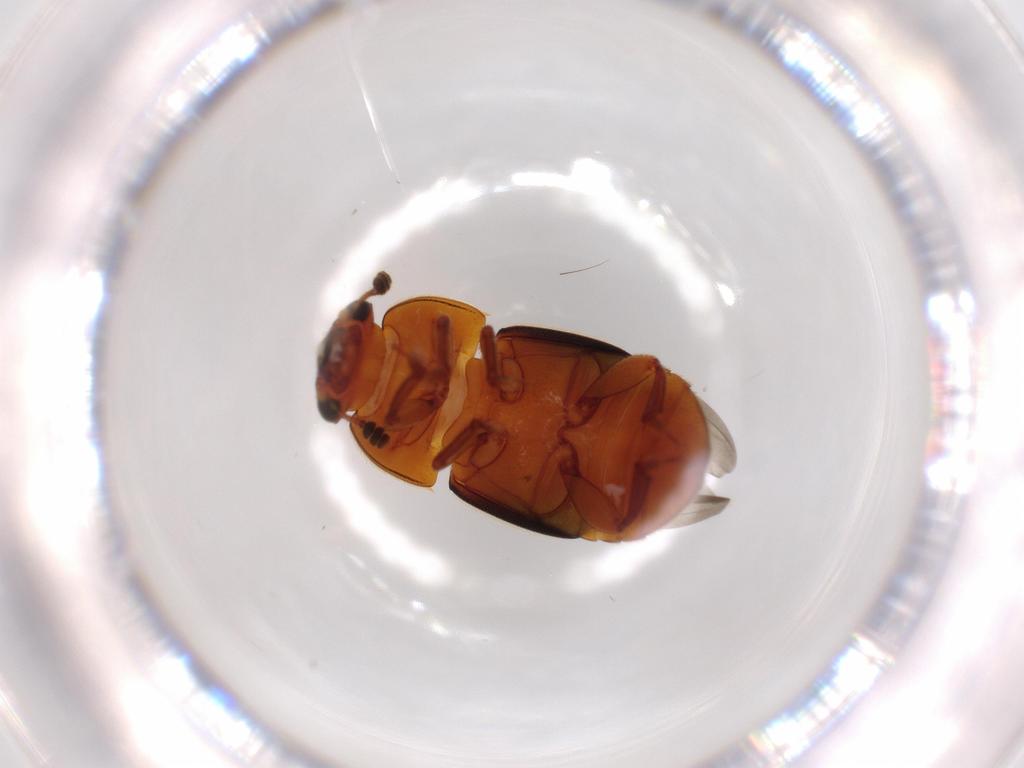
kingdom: Animalia
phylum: Arthropoda
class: Insecta
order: Coleoptera
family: Nitidulidae
